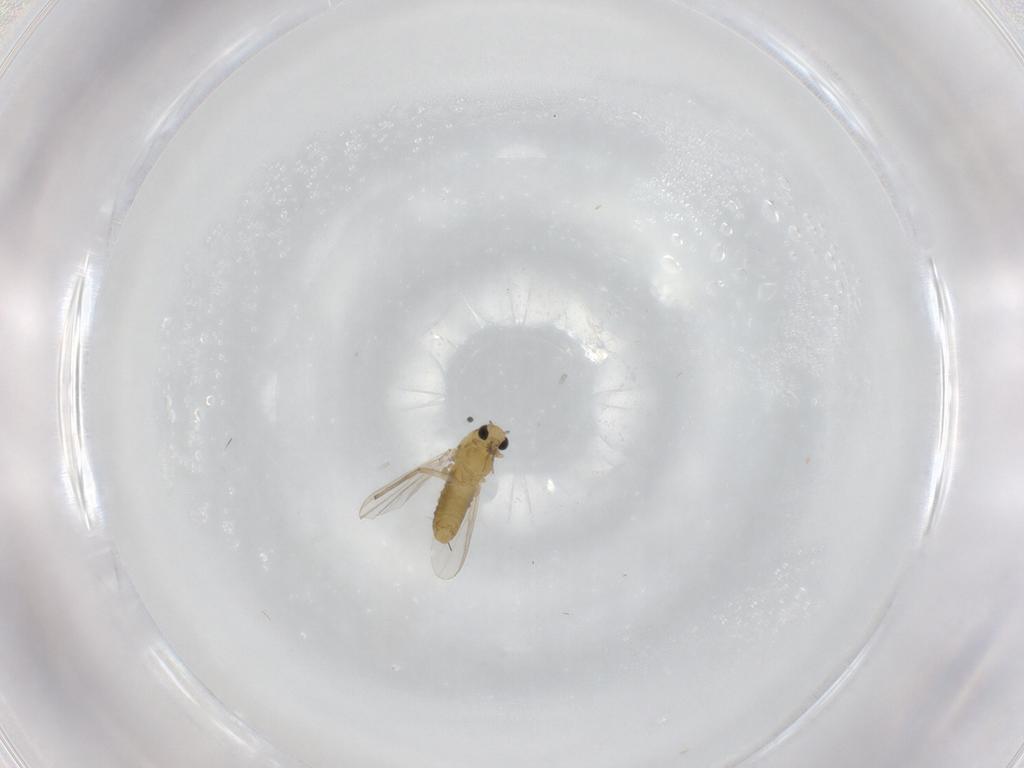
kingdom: Animalia
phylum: Arthropoda
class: Insecta
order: Diptera
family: Chironomidae
